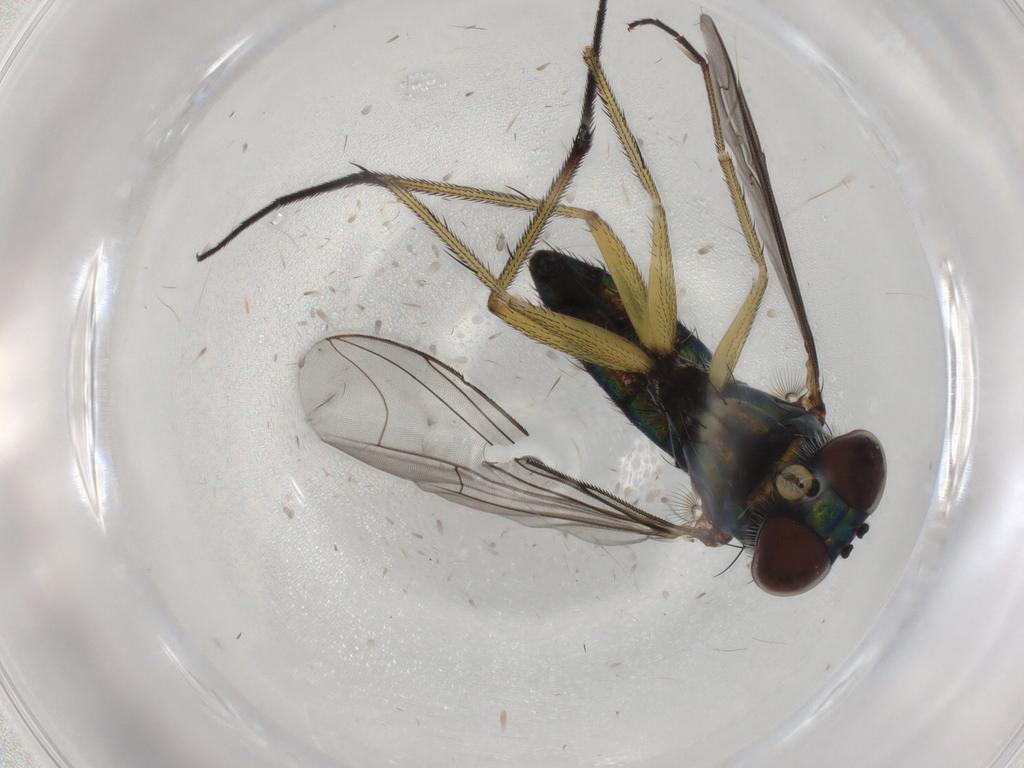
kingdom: Animalia
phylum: Arthropoda
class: Insecta
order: Diptera
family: Dolichopodidae
